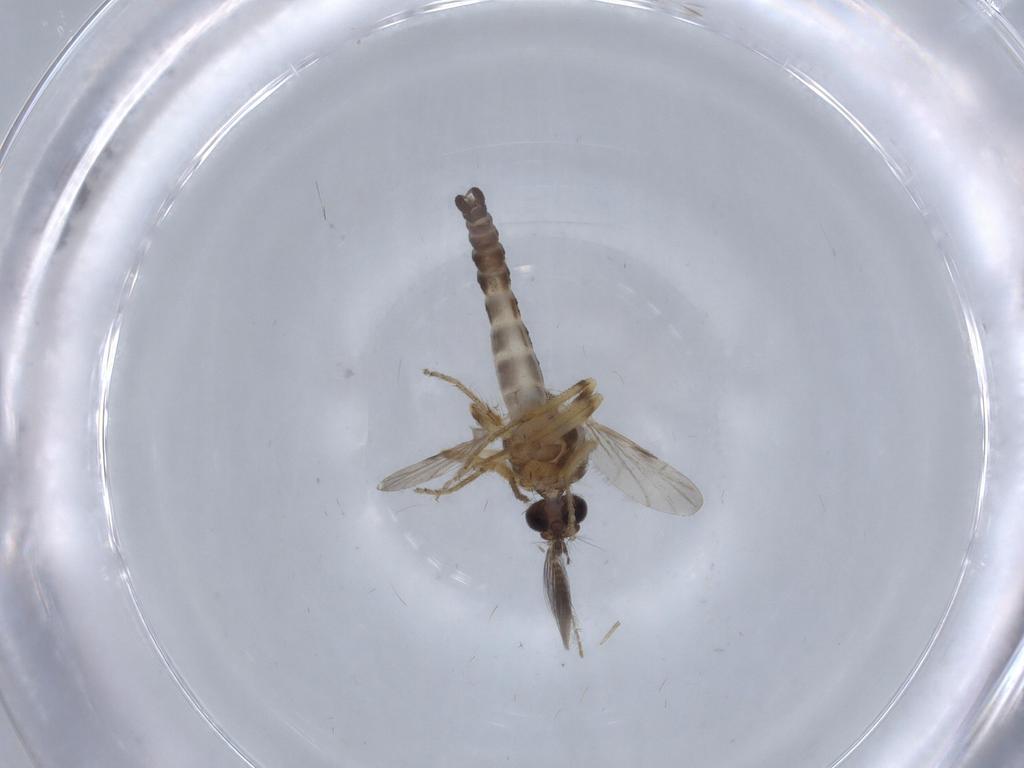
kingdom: Animalia
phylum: Arthropoda
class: Insecta
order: Diptera
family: Ceratopogonidae
